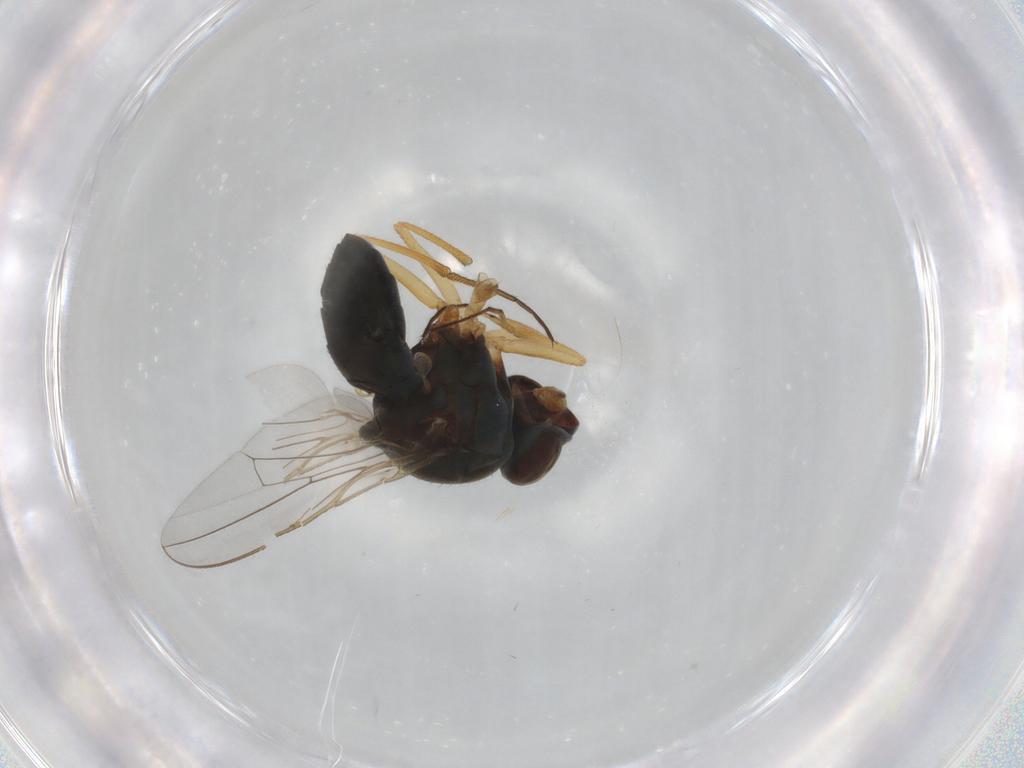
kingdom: Animalia
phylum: Arthropoda
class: Insecta
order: Diptera
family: Ephydridae
